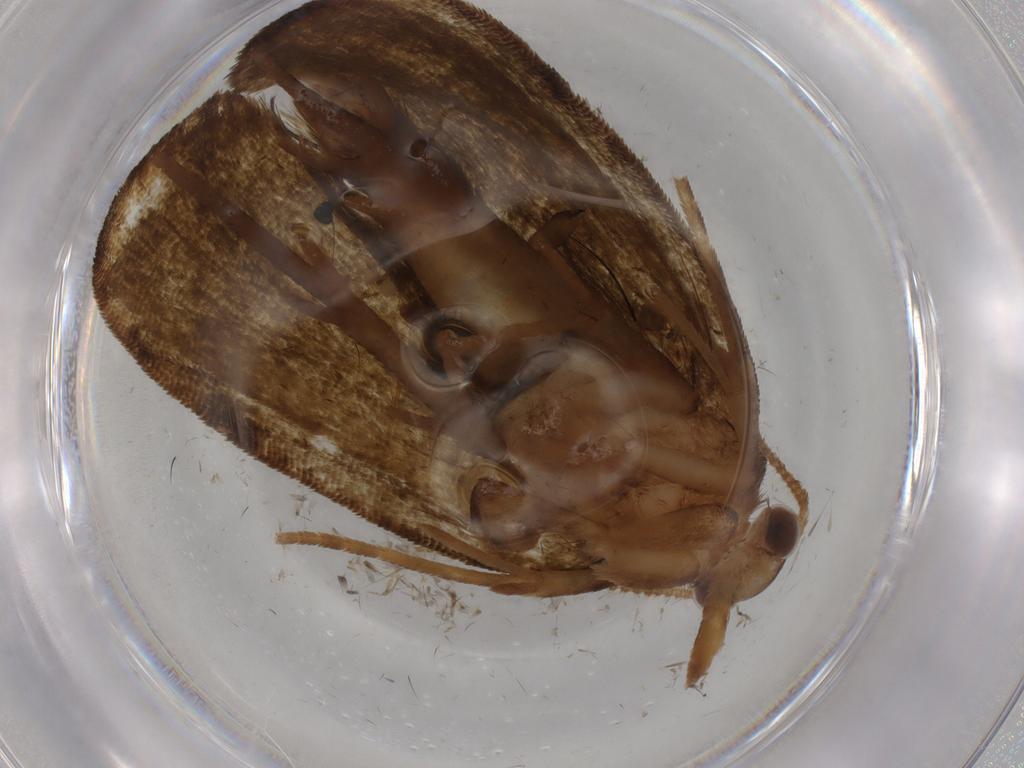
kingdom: Animalia
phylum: Arthropoda
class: Insecta
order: Lepidoptera
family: Geometridae
